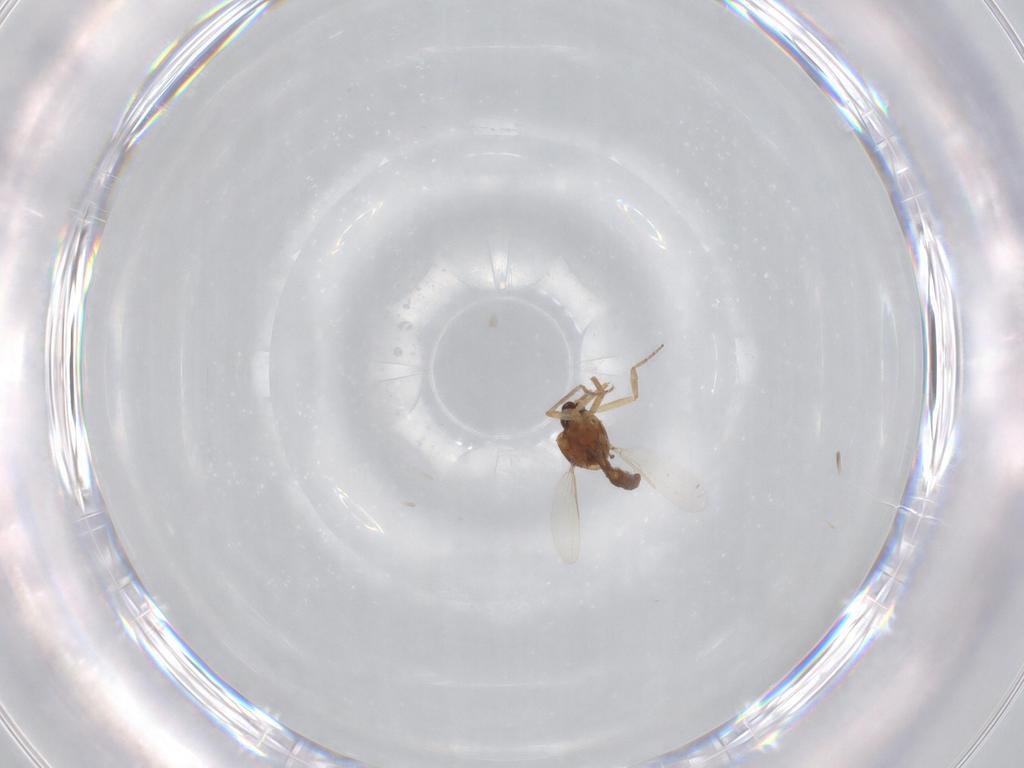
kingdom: Animalia
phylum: Arthropoda
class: Insecta
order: Diptera
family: Ceratopogonidae
